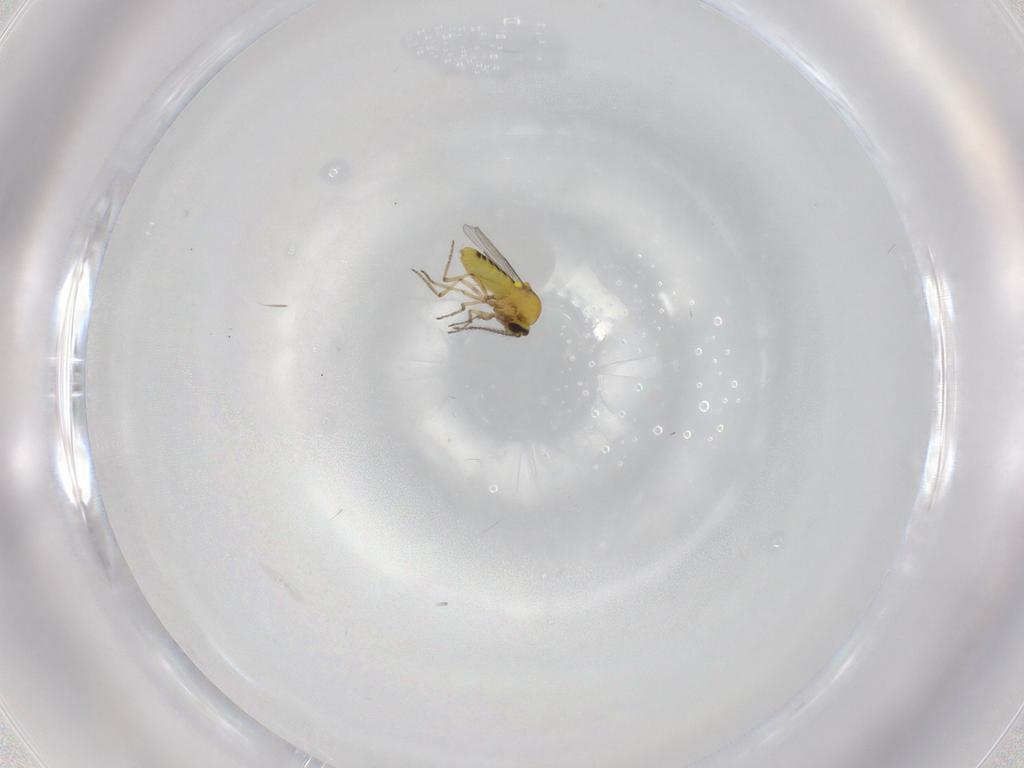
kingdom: Animalia
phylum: Arthropoda
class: Insecta
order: Diptera
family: Ceratopogonidae
